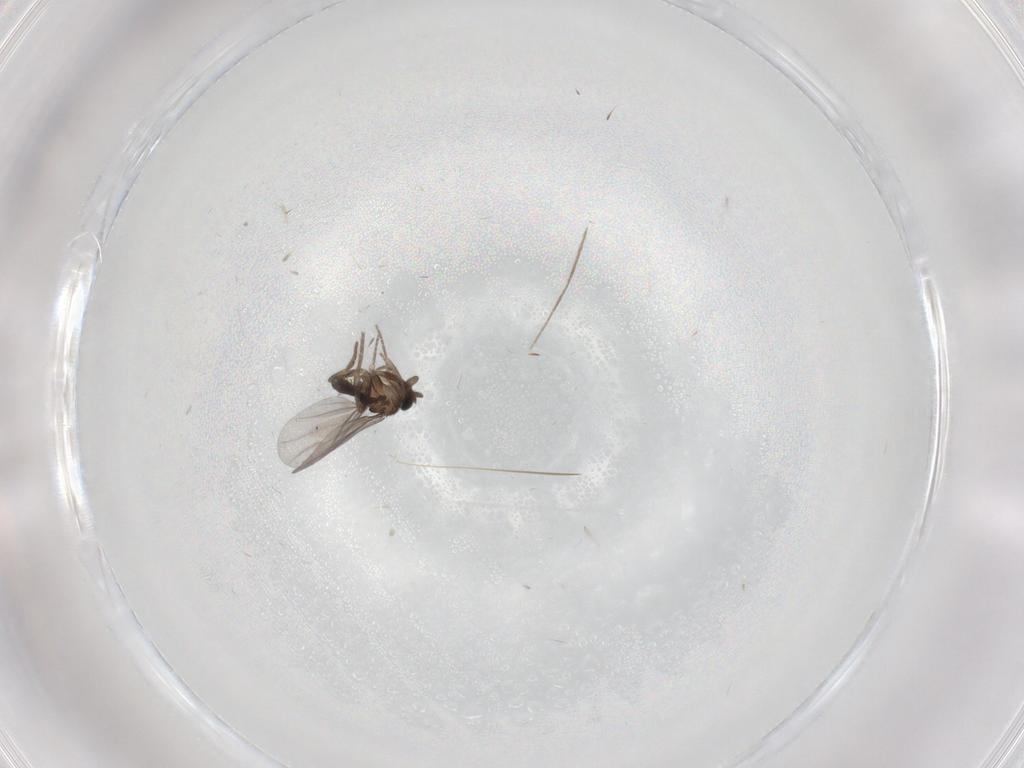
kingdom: Animalia
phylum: Arthropoda
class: Insecta
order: Diptera
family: Chironomidae
